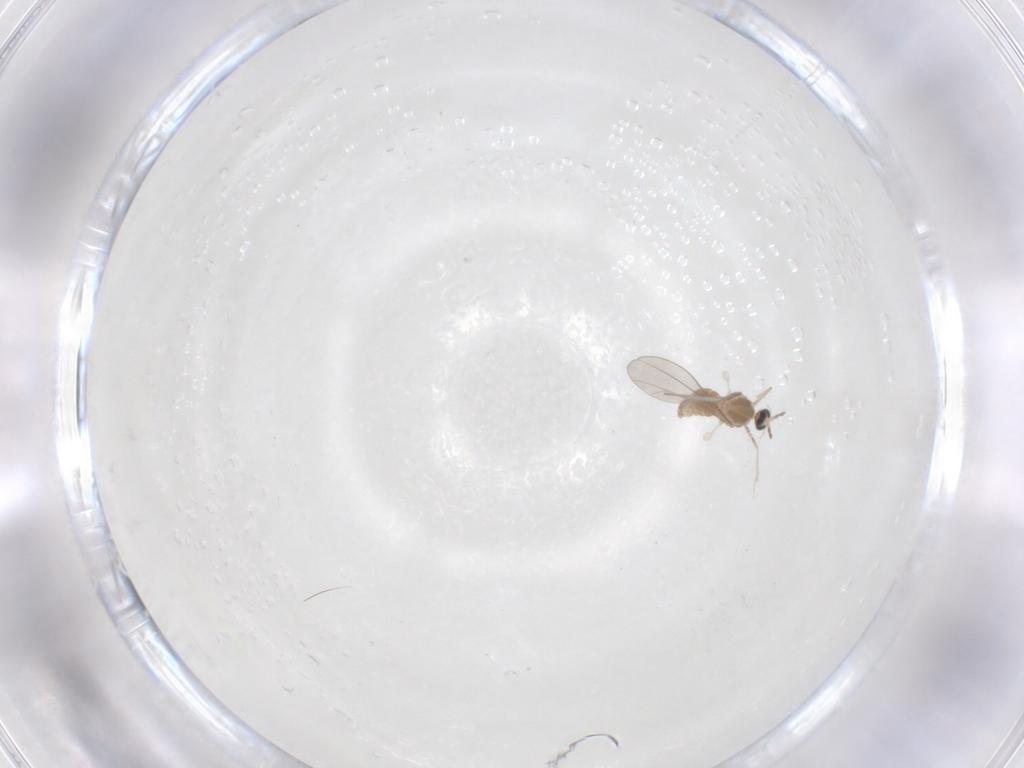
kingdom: Animalia
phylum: Arthropoda
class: Insecta
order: Diptera
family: Cecidomyiidae
